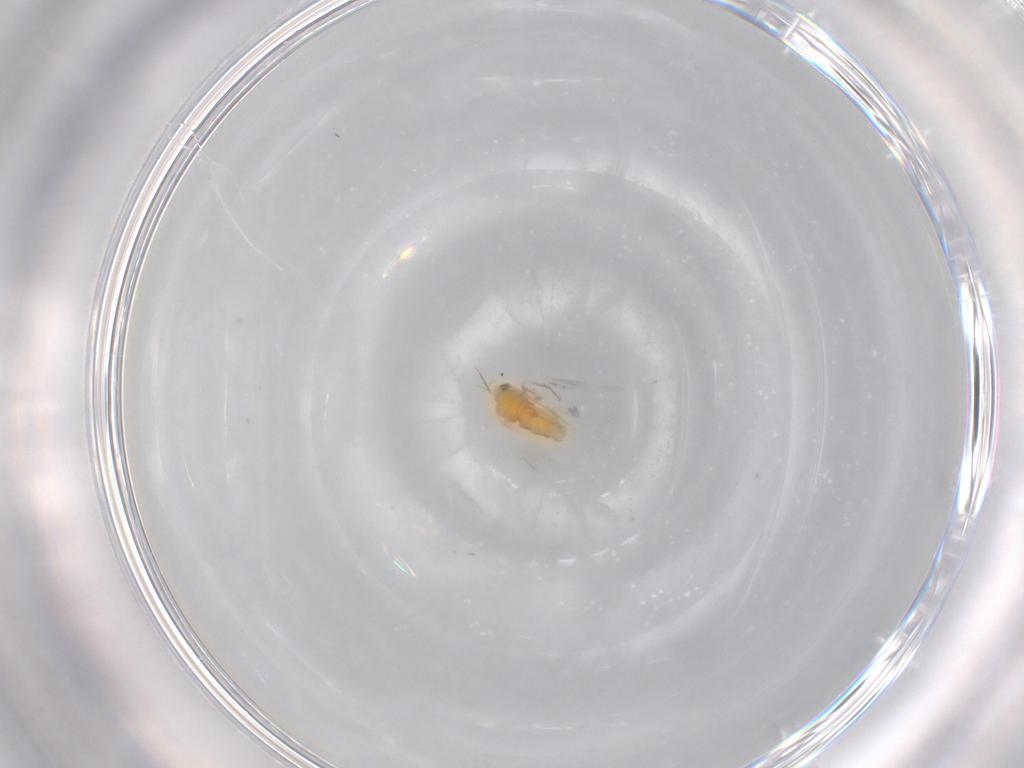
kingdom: Animalia
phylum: Arthropoda
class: Insecta
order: Hemiptera
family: Aleyrodidae
